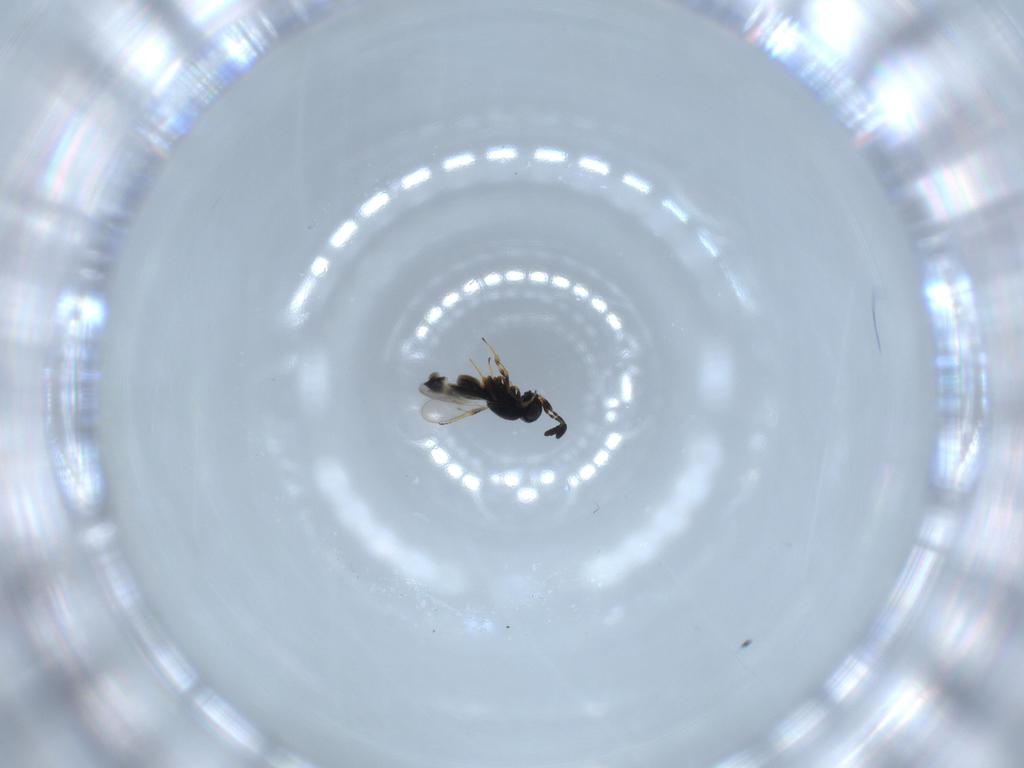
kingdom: Animalia
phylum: Arthropoda
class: Insecta
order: Hymenoptera
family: Scelionidae
